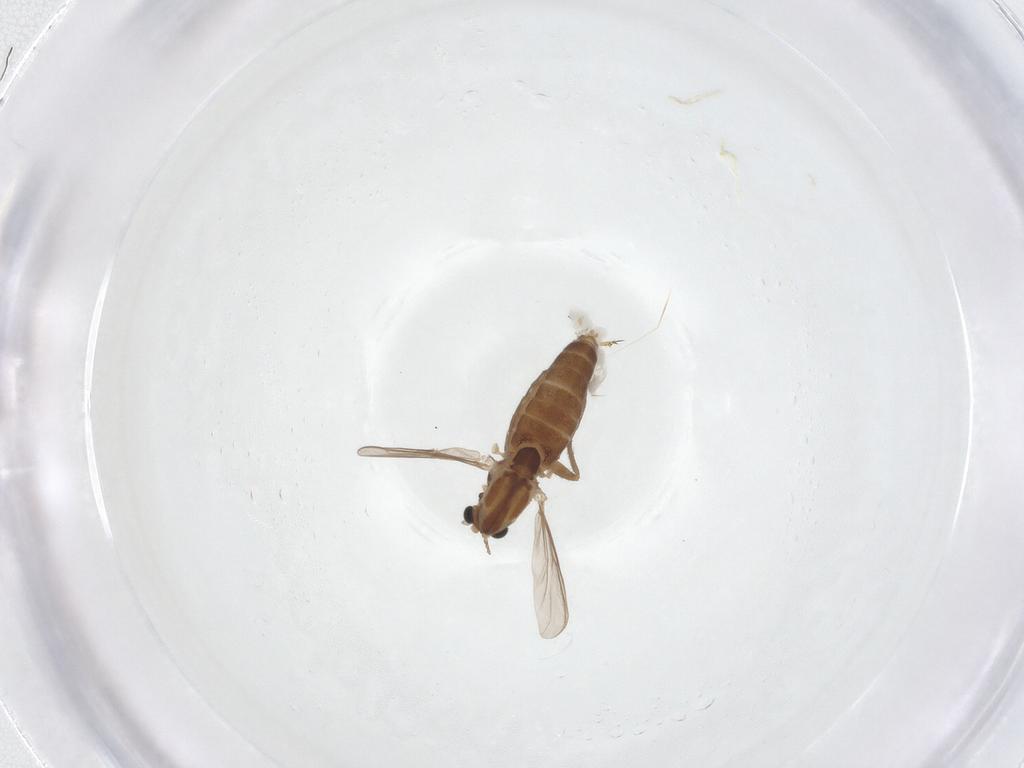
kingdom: Animalia
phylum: Arthropoda
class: Insecta
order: Diptera
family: Chironomidae
